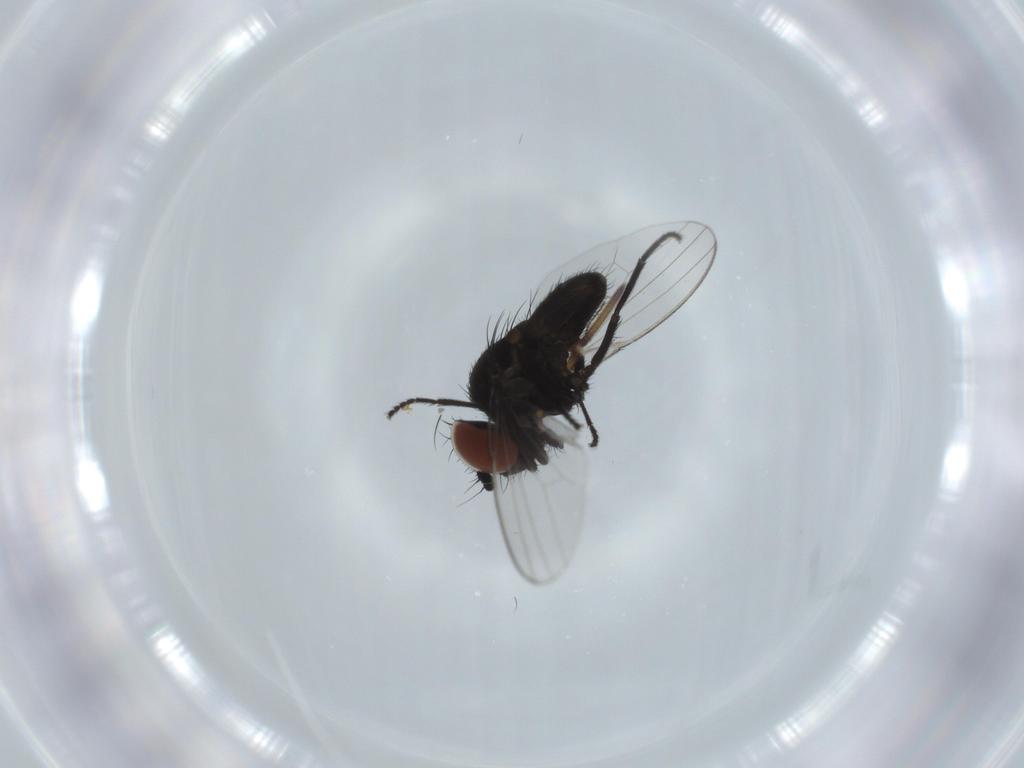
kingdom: Animalia
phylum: Arthropoda
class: Insecta
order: Diptera
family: Ceratopogonidae
